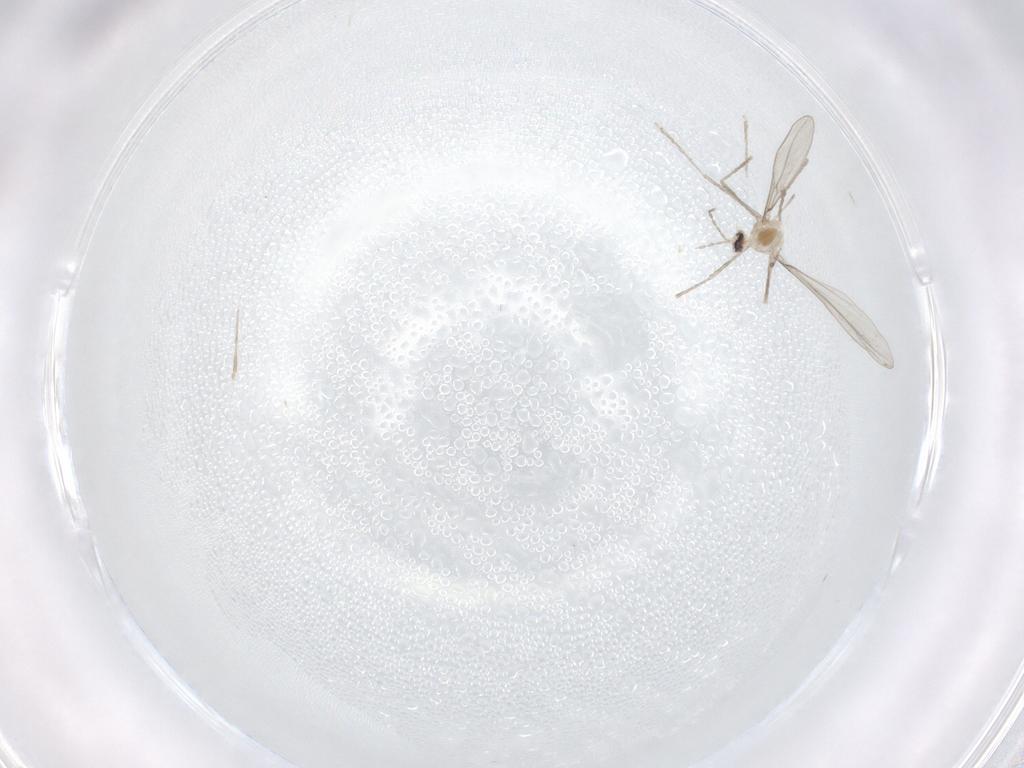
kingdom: Animalia
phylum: Arthropoda
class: Insecta
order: Diptera
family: Cecidomyiidae
